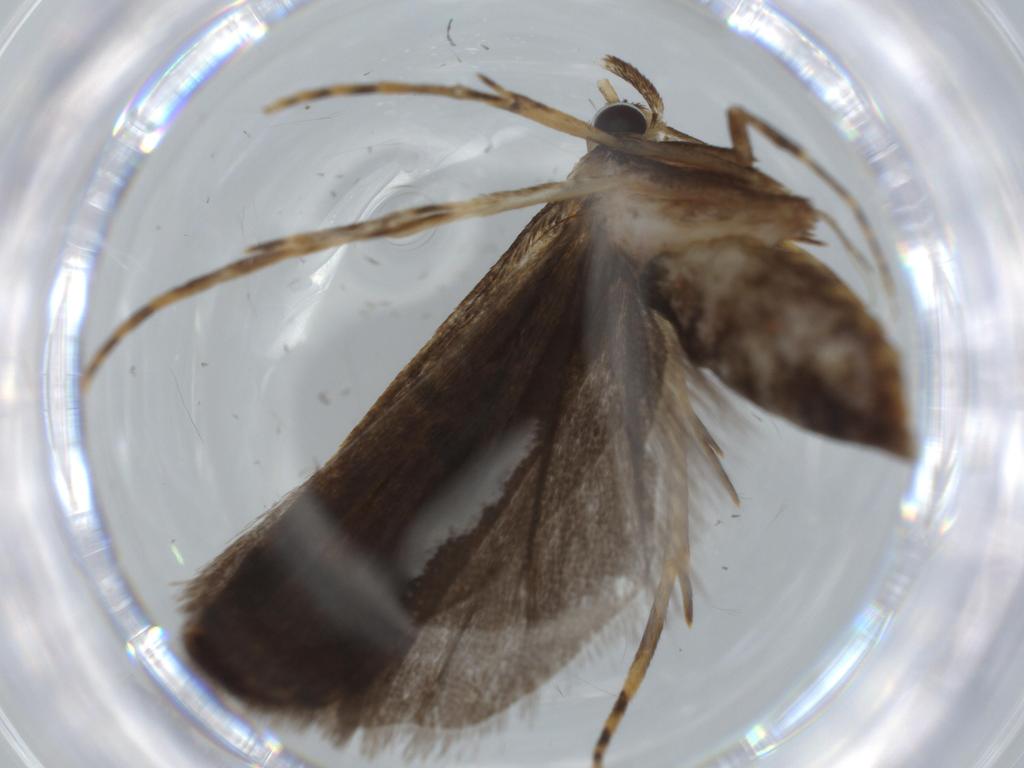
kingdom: Animalia
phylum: Arthropoda
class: Insecta
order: Lepidoptera
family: Autostichidae
